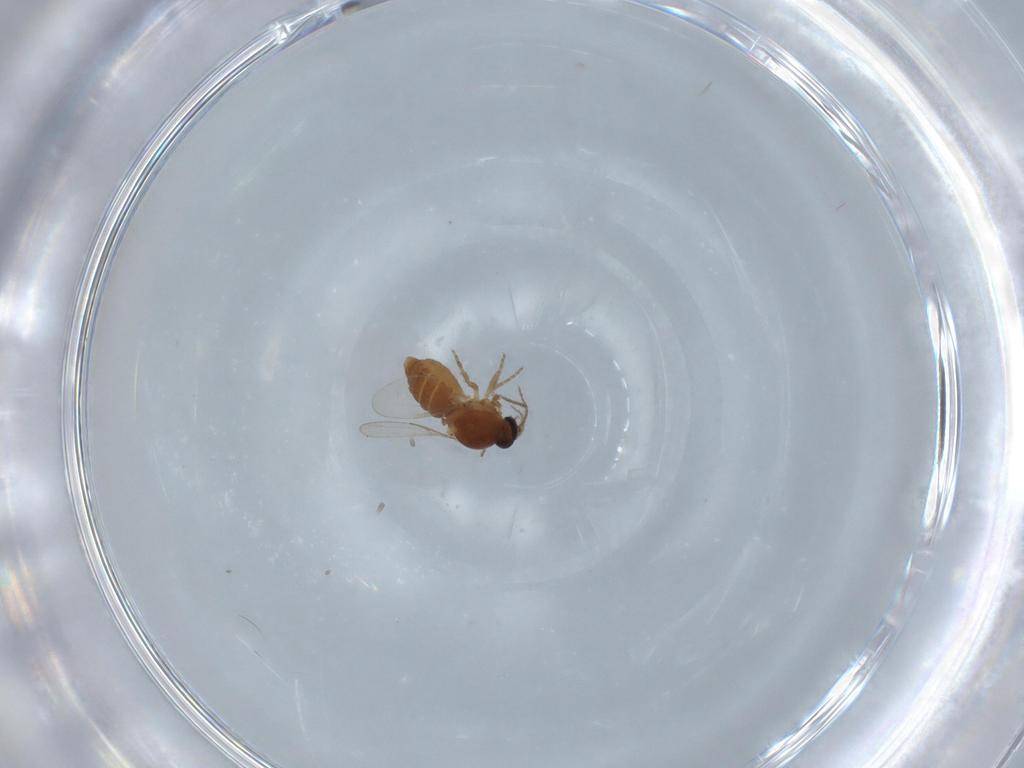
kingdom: Animalia
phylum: Arthropoda
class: Insecta
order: Diptera
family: Ceratopogonidae
